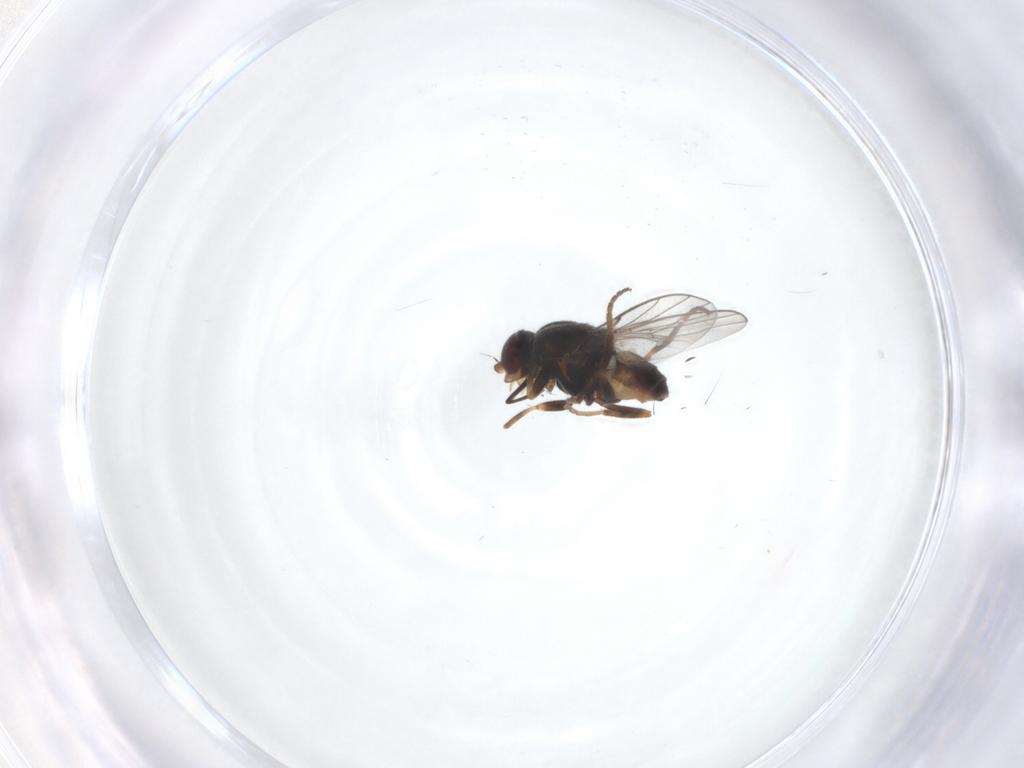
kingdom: Animalia
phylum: Arthropoda
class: Insecta
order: Diptera
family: Chloropidae
